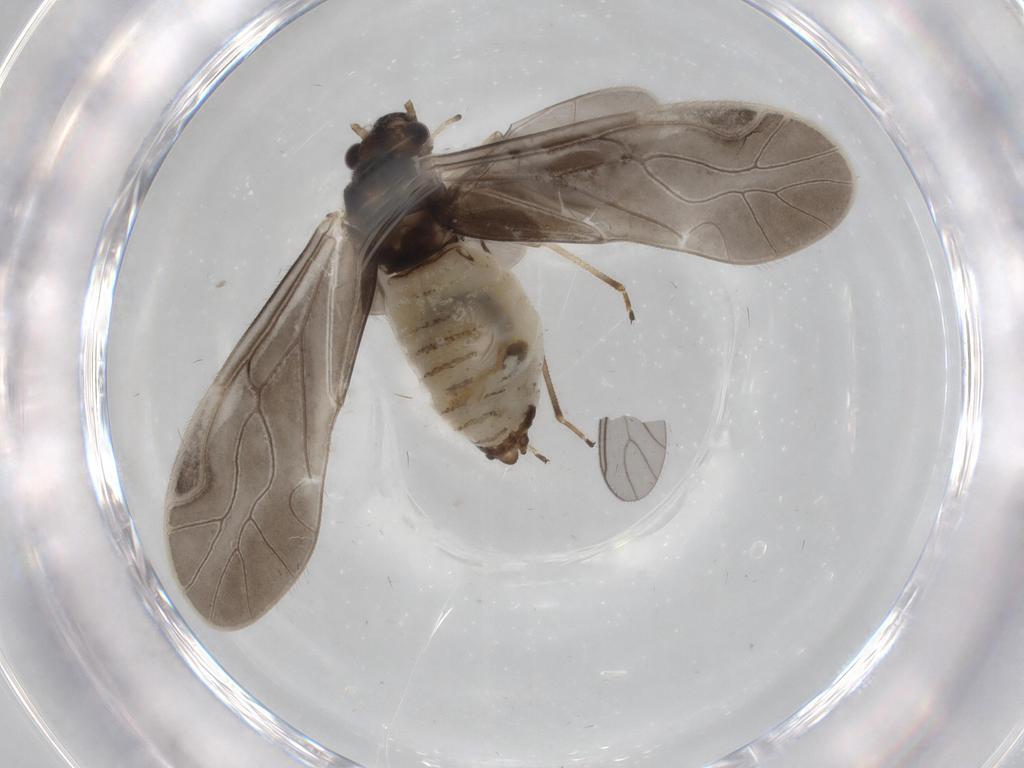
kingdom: Animalia
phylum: Arthropoda
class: Insecta
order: Psocodea
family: Caeciliusidae
